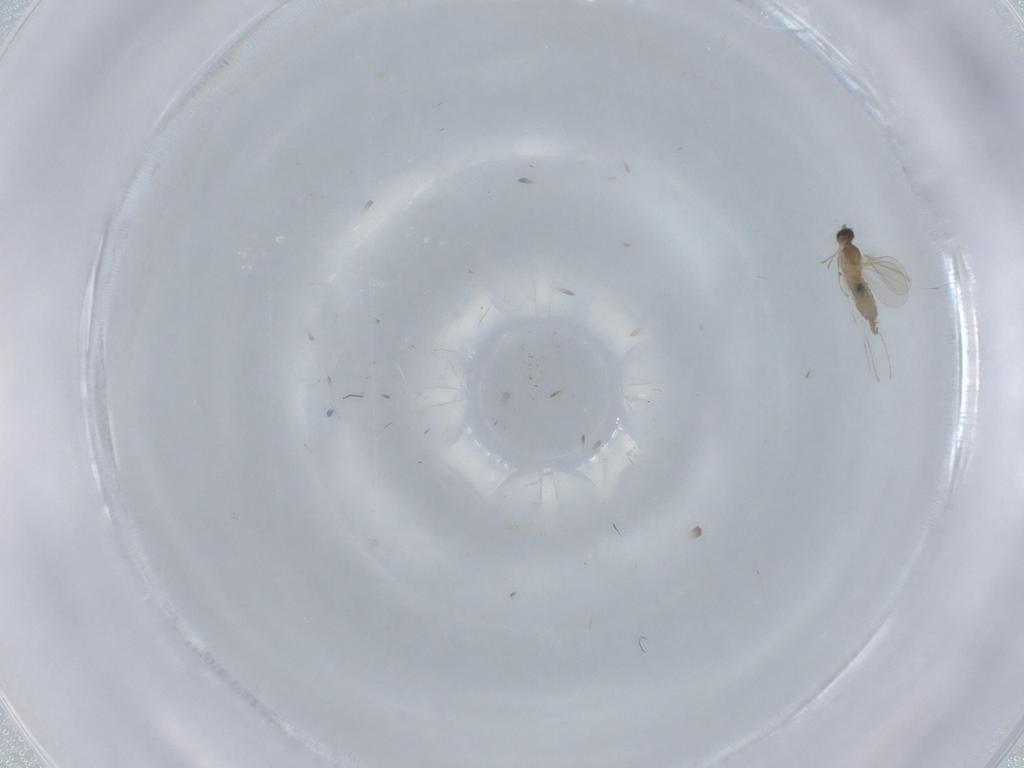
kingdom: Animalia
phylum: Arthropoda
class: Insecta
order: Diptera
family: Cecidomyiidae
